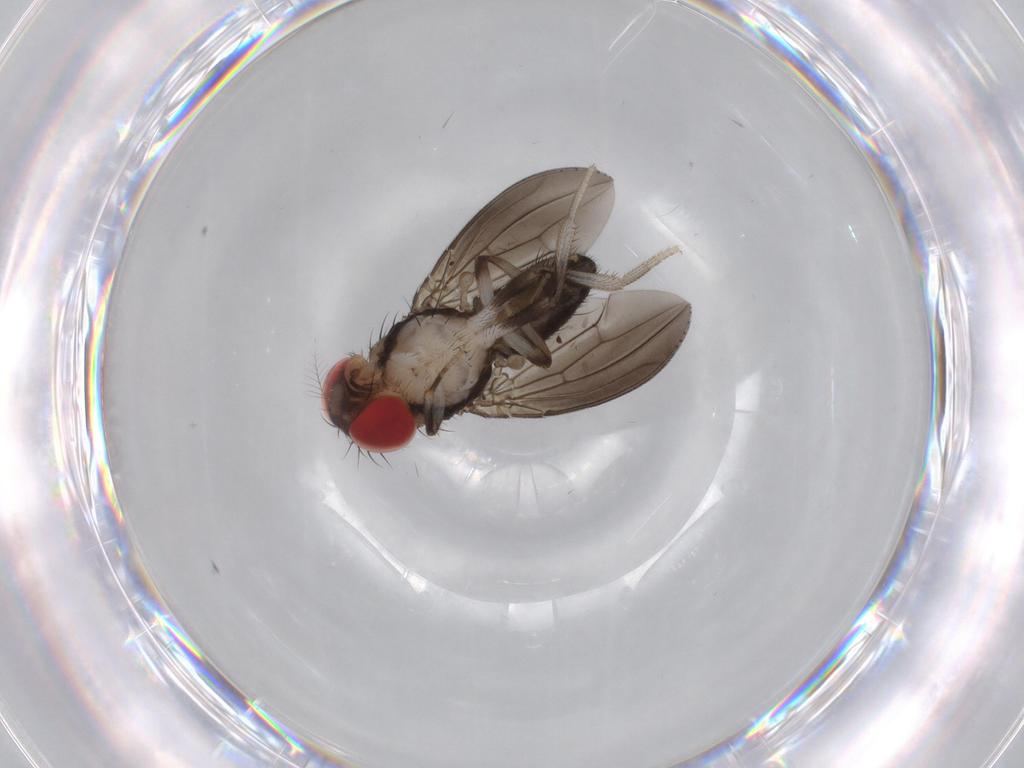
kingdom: Animalia
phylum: Arthropoda
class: Insecta
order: Diptera
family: Drosophilidae
